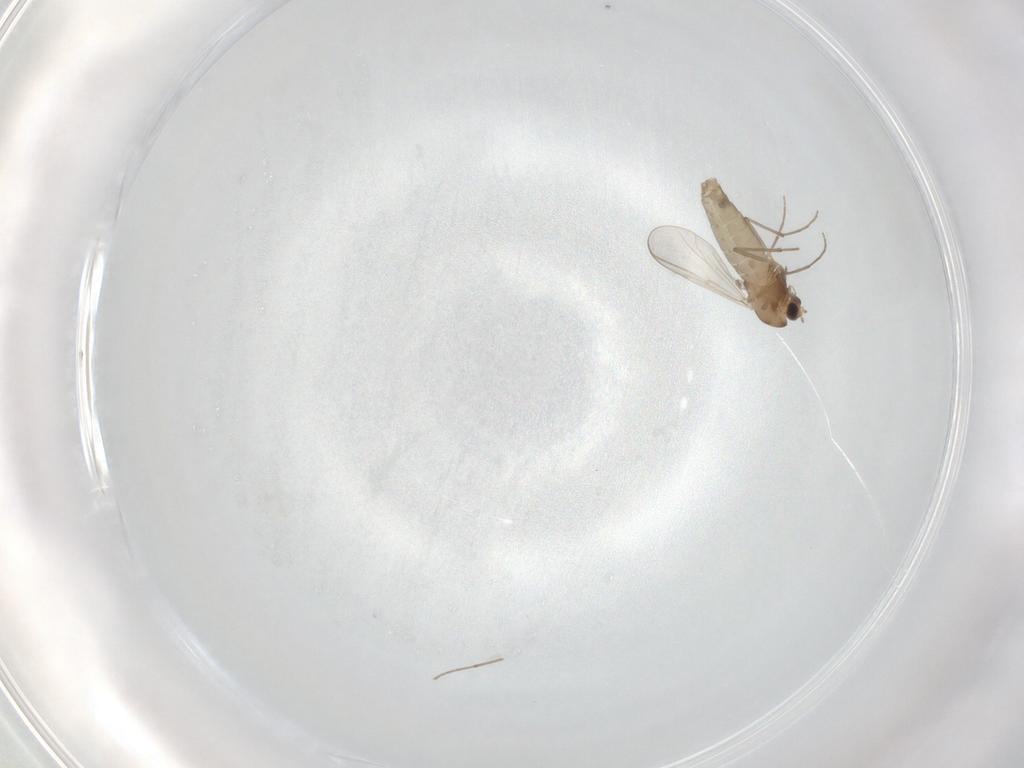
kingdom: Animalia
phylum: Arthropoda
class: Insecta
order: Diptera
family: Chironomidae
